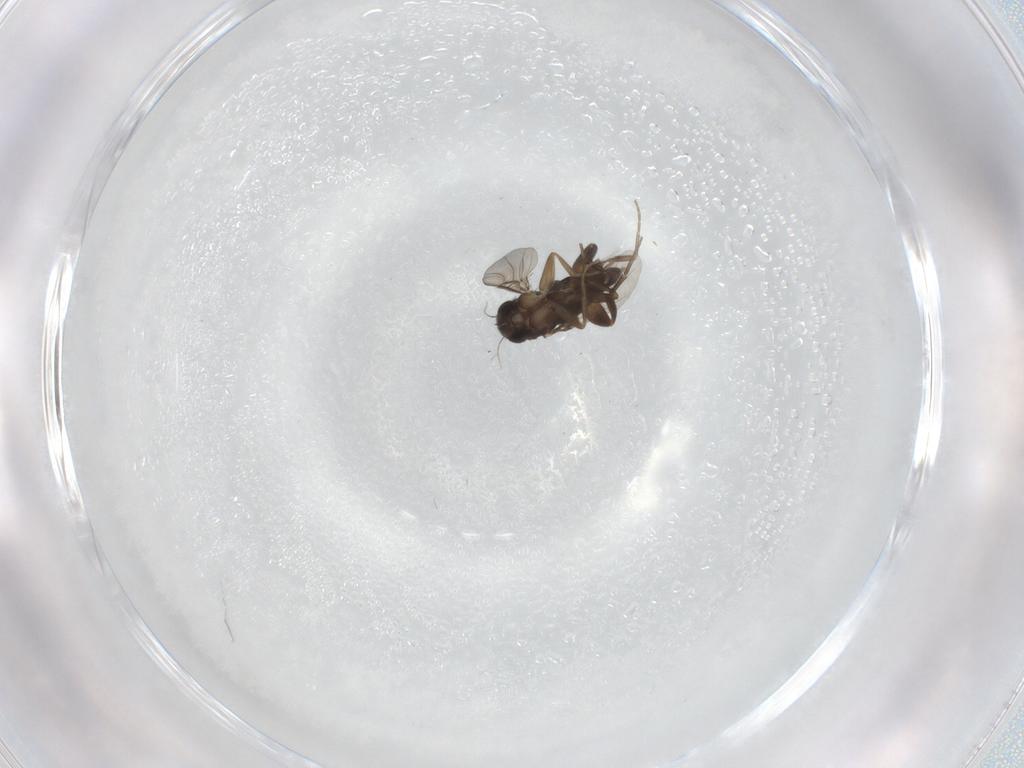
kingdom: Animalia
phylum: Arthropoda
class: Insecta
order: Diptera
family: Phoridae
